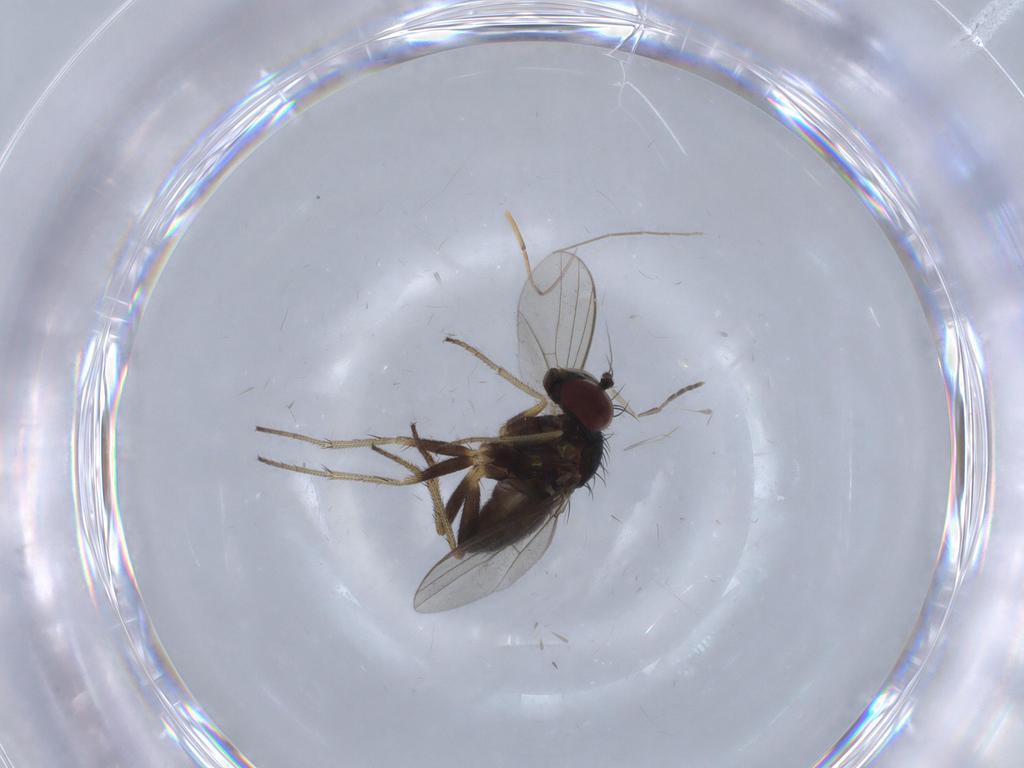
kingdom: Animalia
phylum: Arthropoda
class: Insecta
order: Diptera
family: Dolichopodidae
